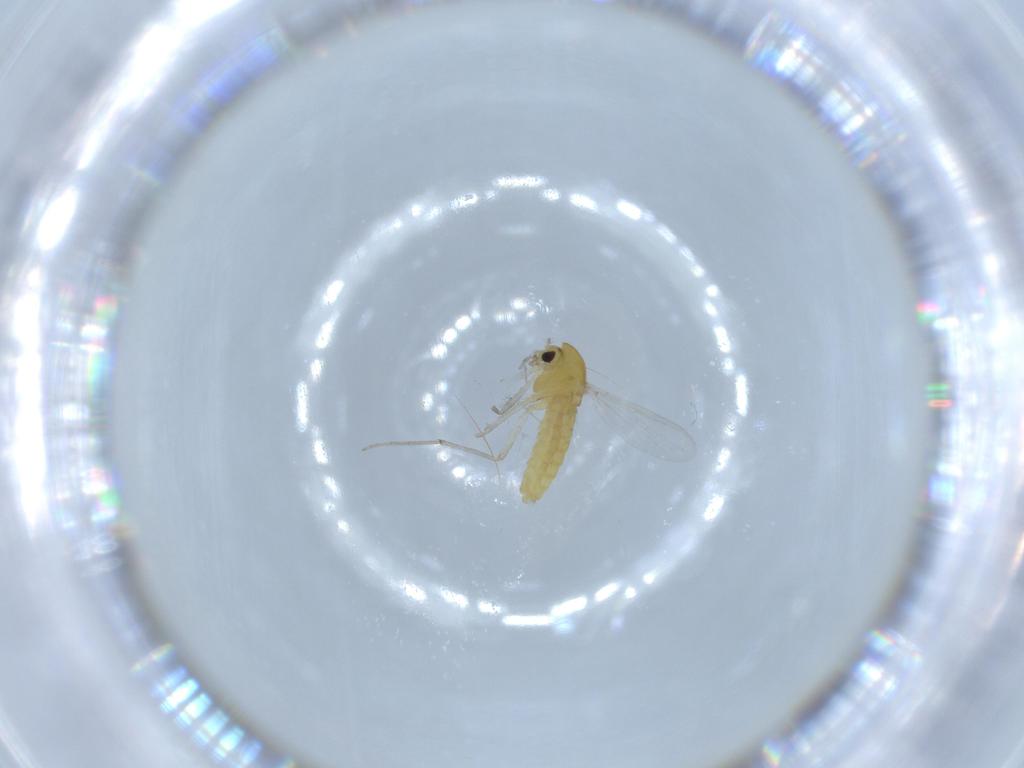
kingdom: Animalia
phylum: Arthropoda
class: Insecta
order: Diptera
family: Chironomidae
